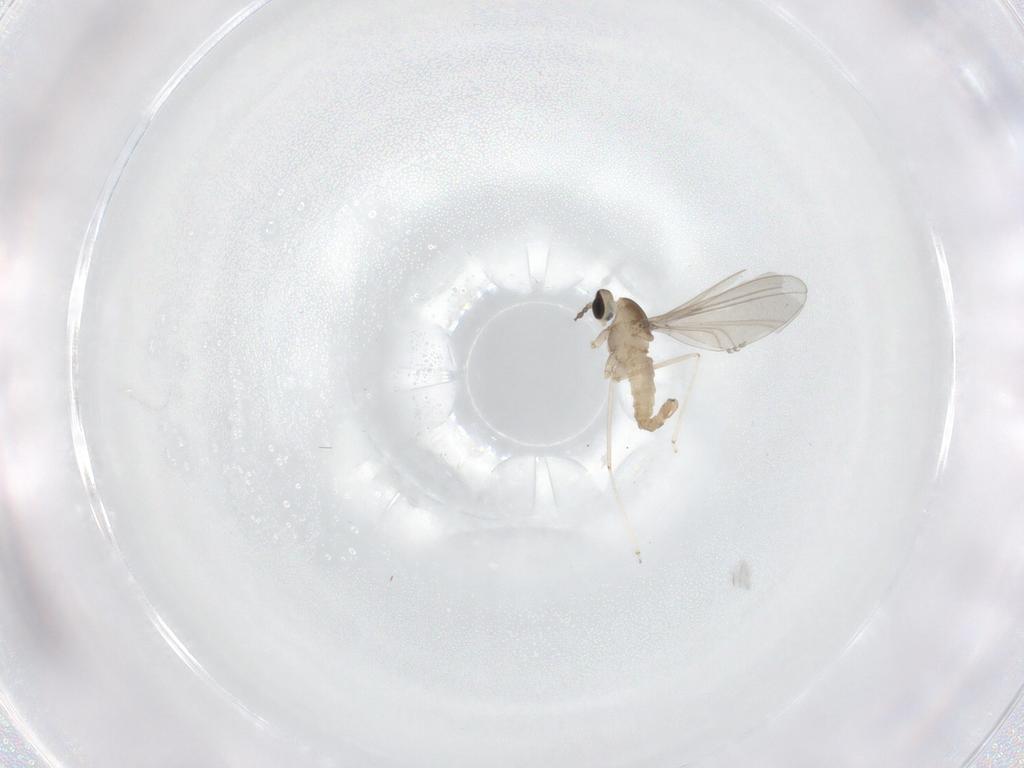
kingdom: Animalia
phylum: Arthropoda
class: Insecta
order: Diptera
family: Cecidomyiidae
